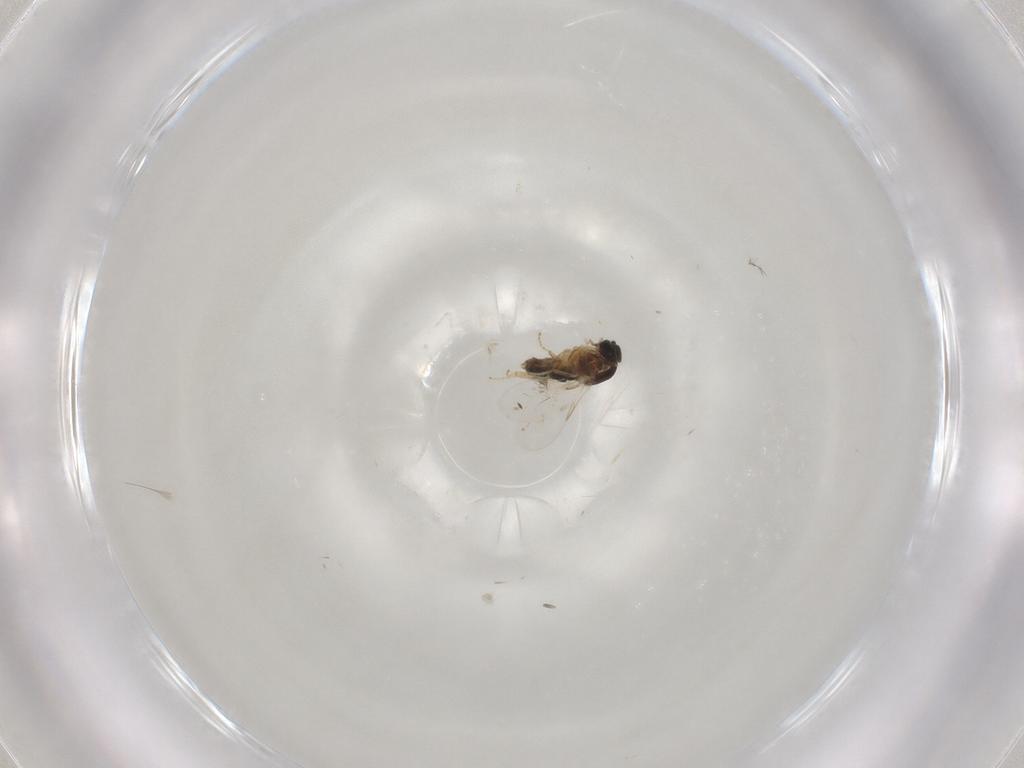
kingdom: Animalia
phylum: Arthropoda
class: Insecta
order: Diptera
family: Scatopsidae
